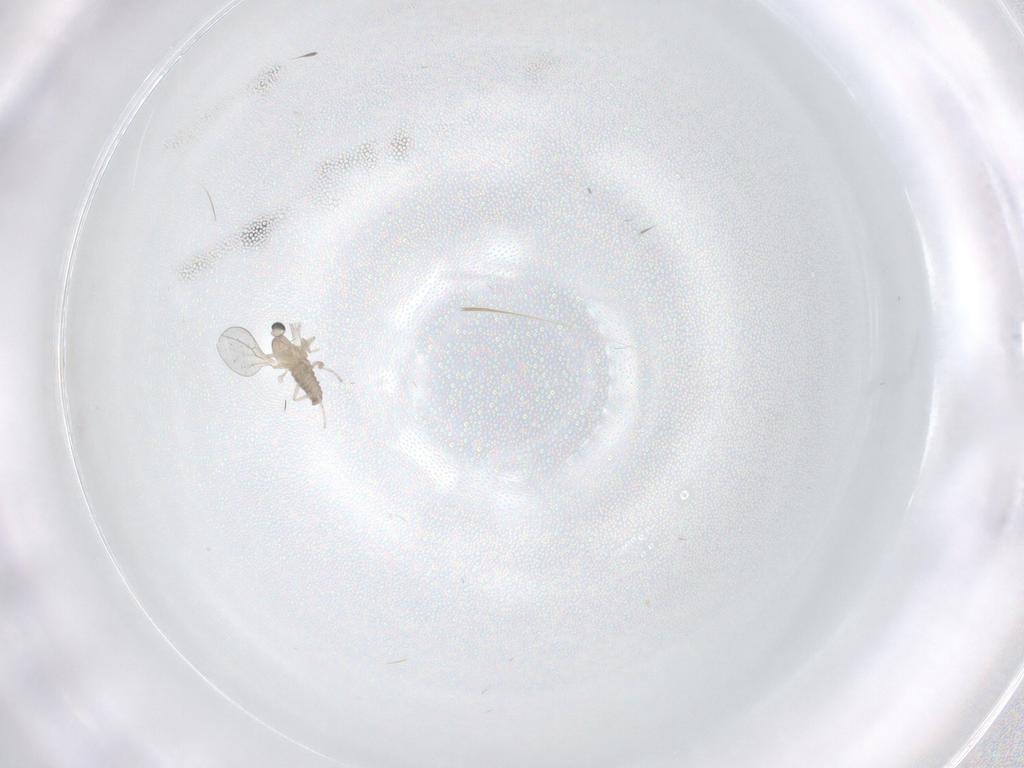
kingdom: Animalia
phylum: Arthropoda
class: Insecta
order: Diptera
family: Cecidomyiidae
